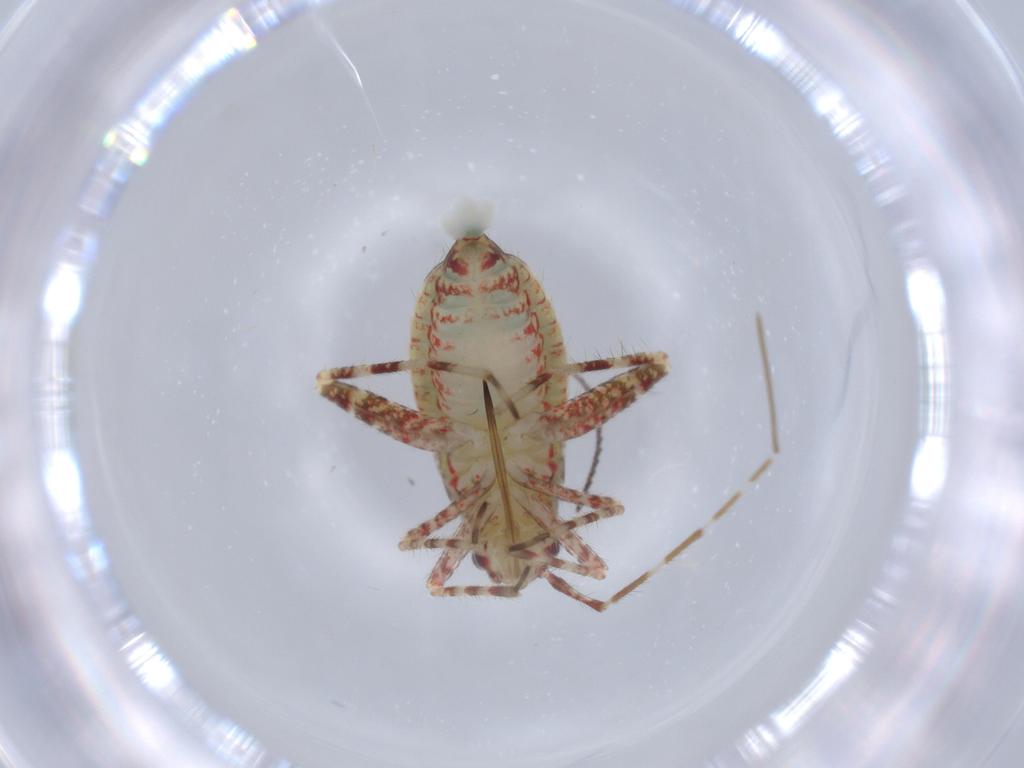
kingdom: Animalia
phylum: Arthropoda
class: Insecta
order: Hemiptera
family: Miridae
